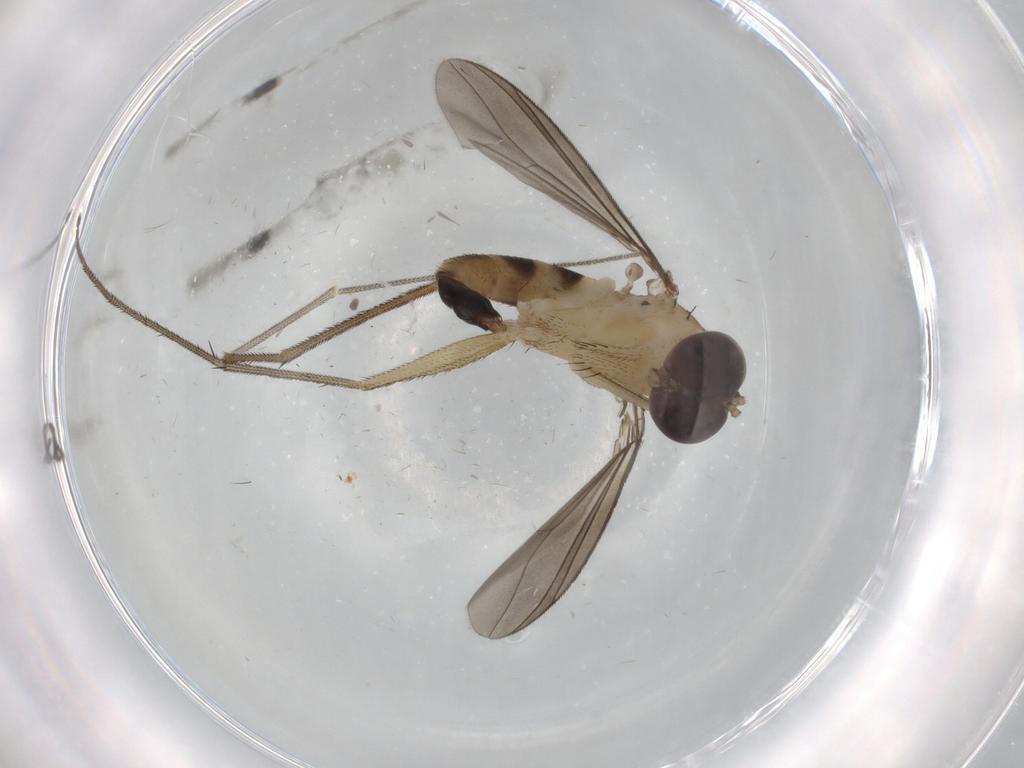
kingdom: Animalia
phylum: Arthropoda
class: Insecta
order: Diptera
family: Dolichopodidae
